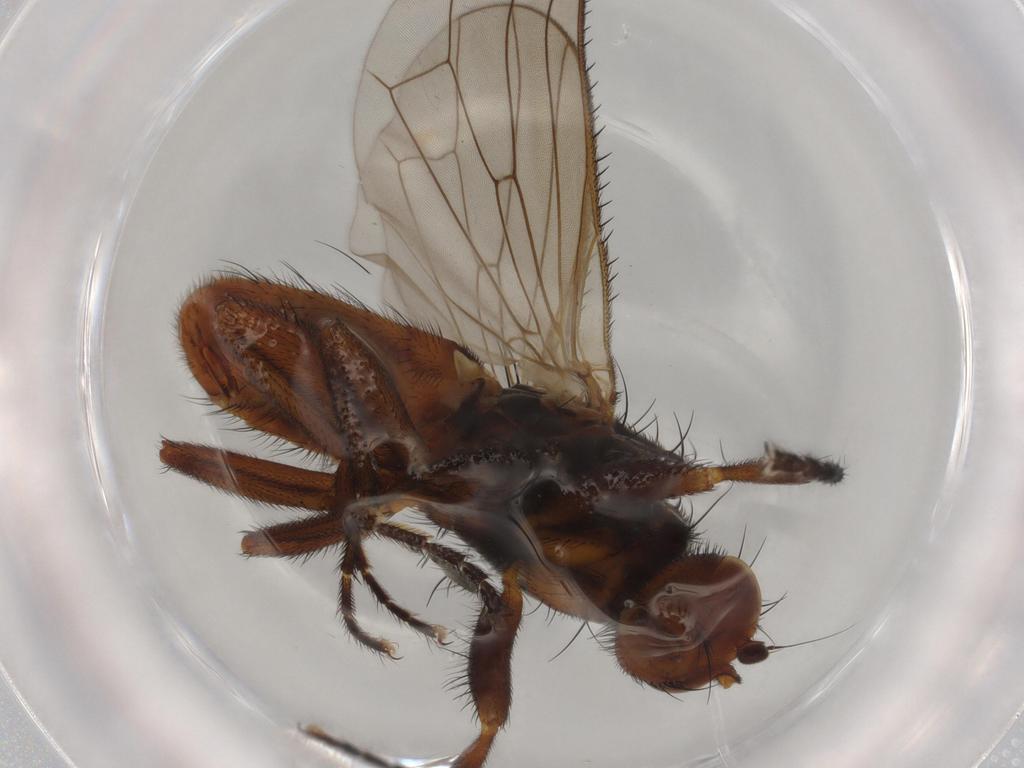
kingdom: Animalia
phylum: Arthropoda
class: Insecta
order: Diptera
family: Heleomyzidae
